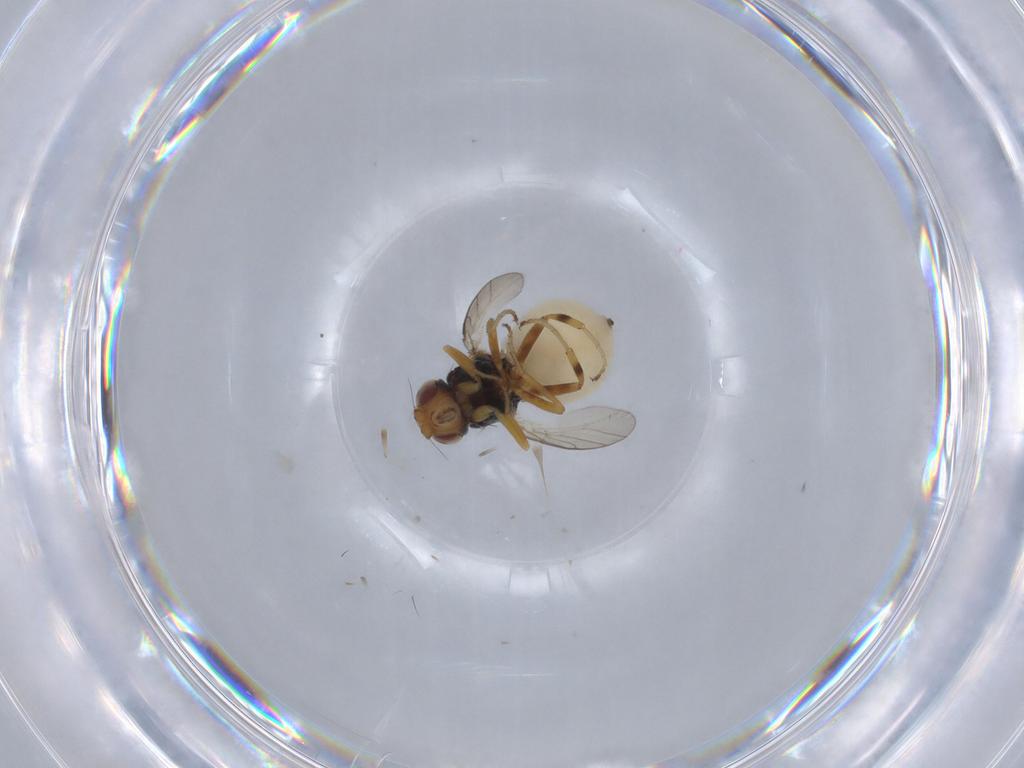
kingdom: Animalia
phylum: Arthropoda
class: Insecta
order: Diptera
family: Chloropidae
